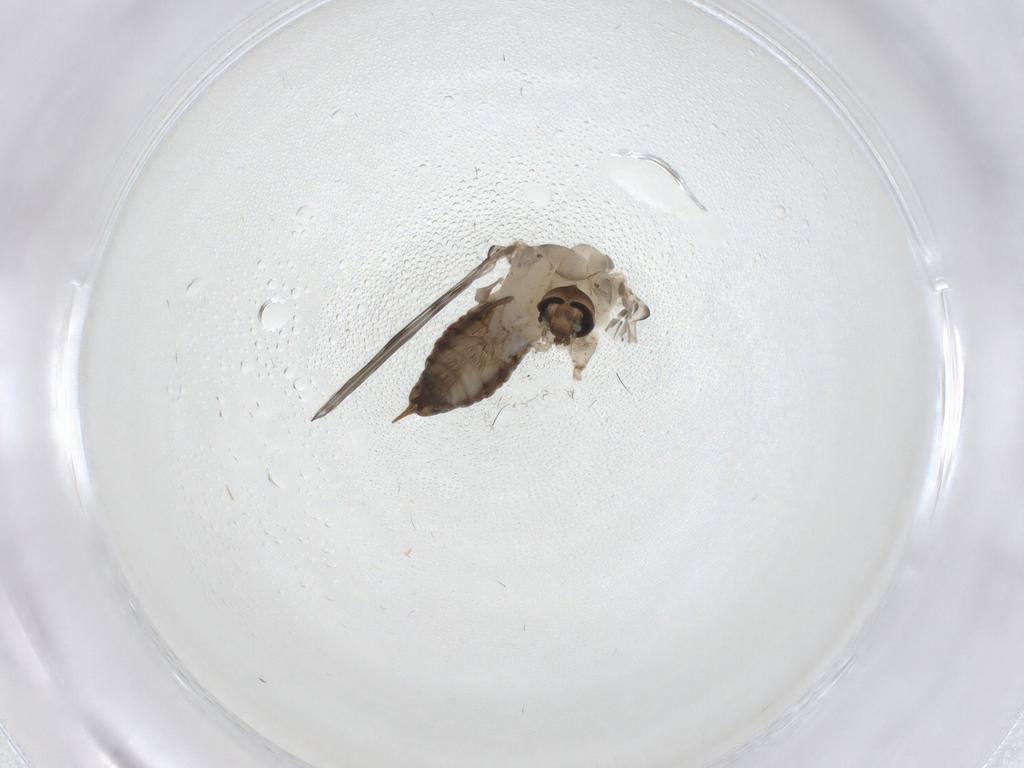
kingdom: Animalia
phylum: Arthropoda
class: Insecta
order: Diptera
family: Psychodidae
